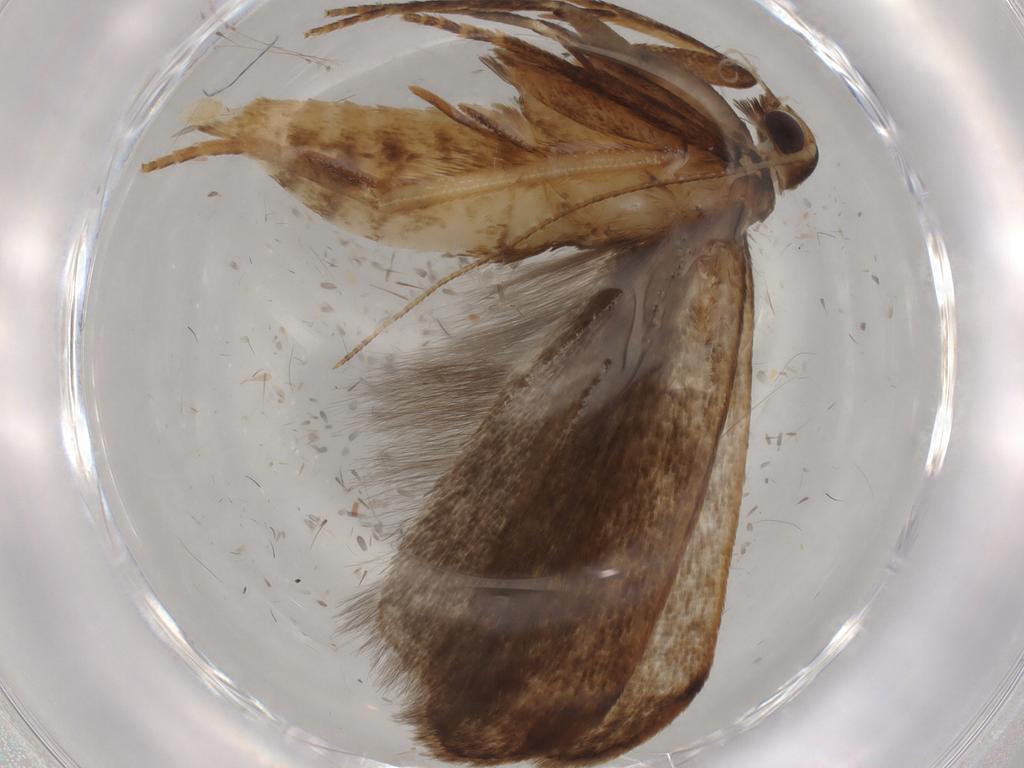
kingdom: Animalia
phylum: Arthropoda
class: Insecta
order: Lepidoptera
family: Gelechiidae
